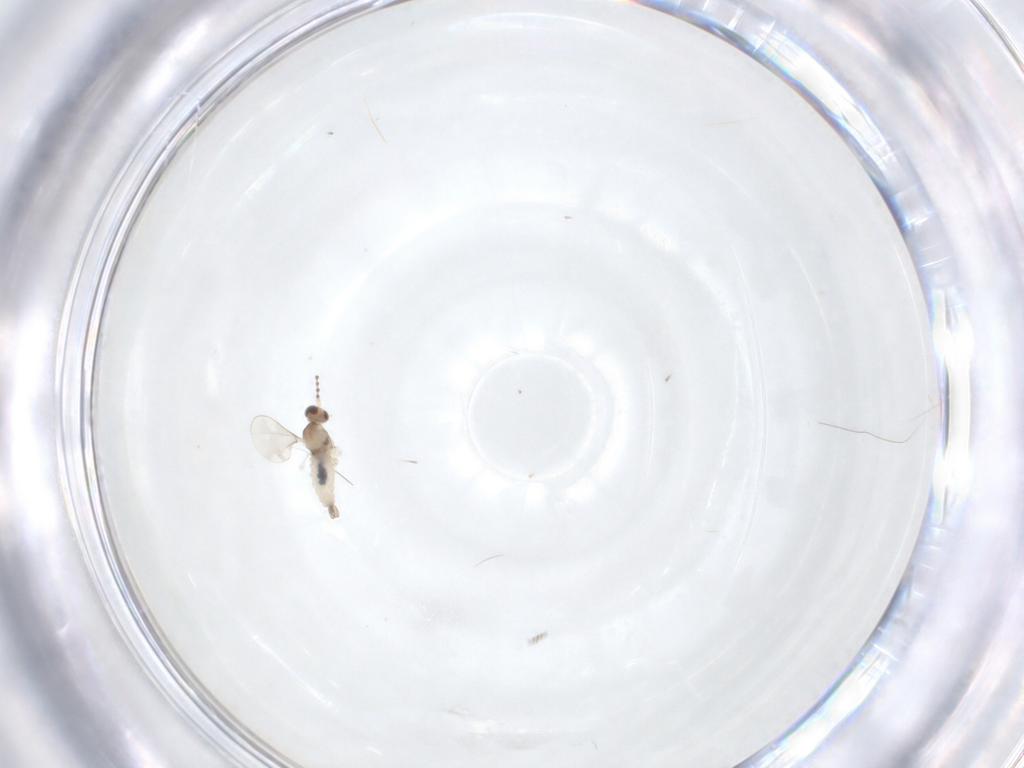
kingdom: Animalia
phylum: Arthropoda
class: Insecta
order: Diptera
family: Cecidomyiidae
